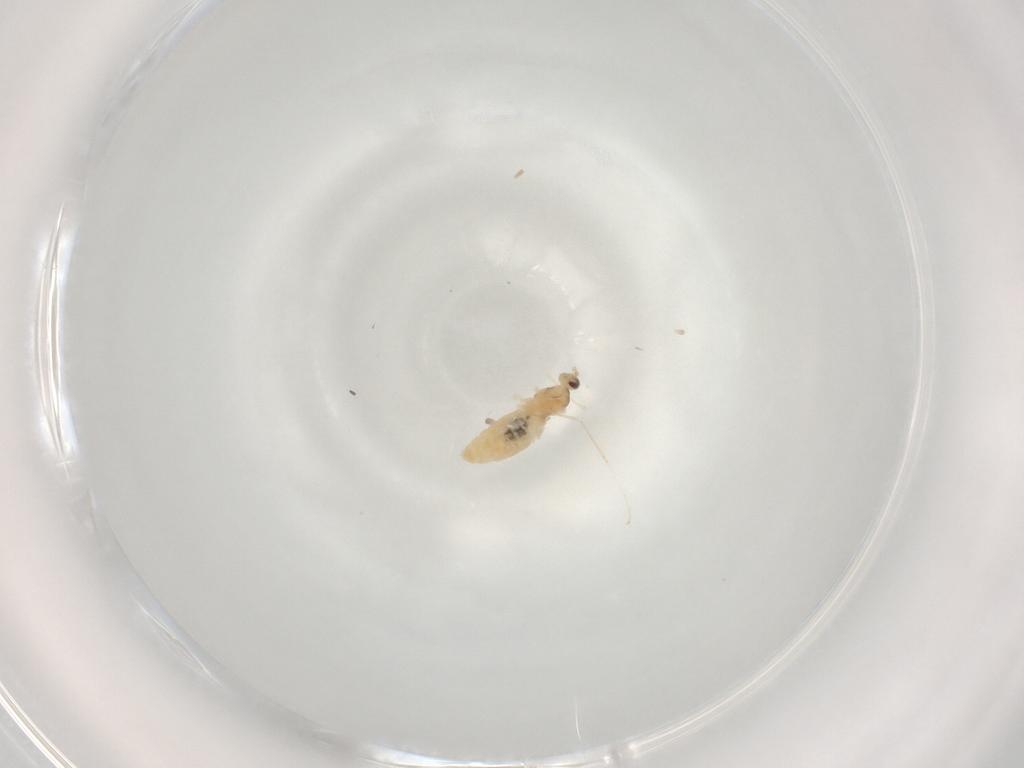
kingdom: Animalia
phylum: Arthropoda
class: Insecta
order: Diptera
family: Cecidomyiidae
